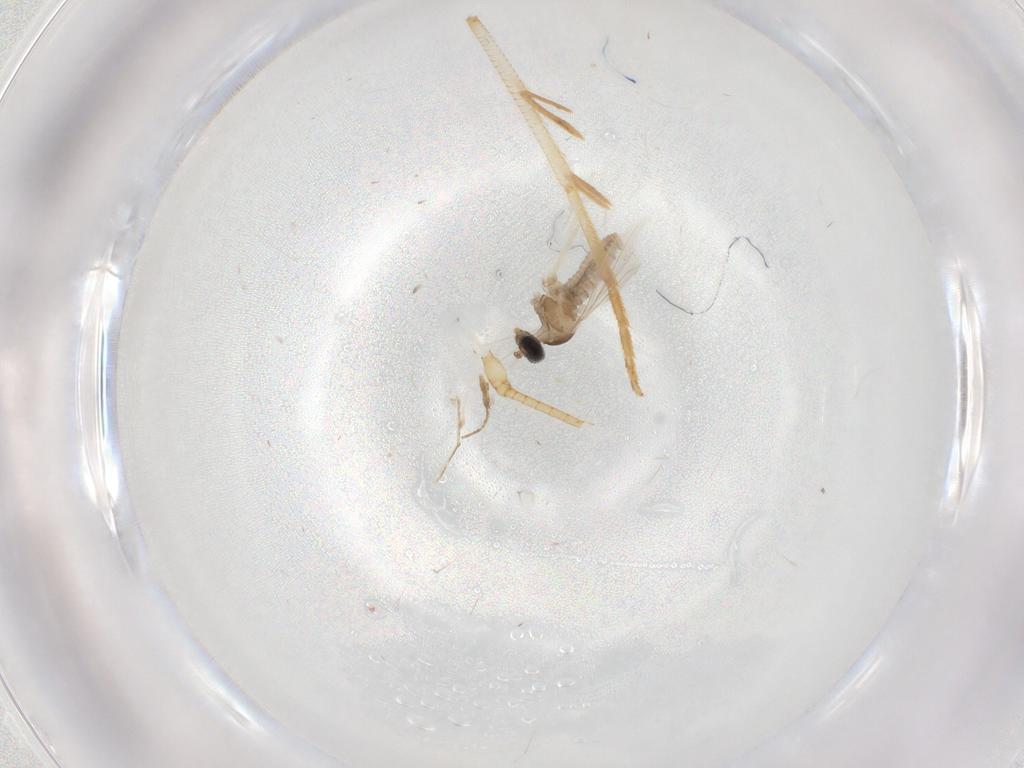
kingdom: Animalia
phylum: Arthropoda
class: Insecta
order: Diptera
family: Cecidomyiidae
